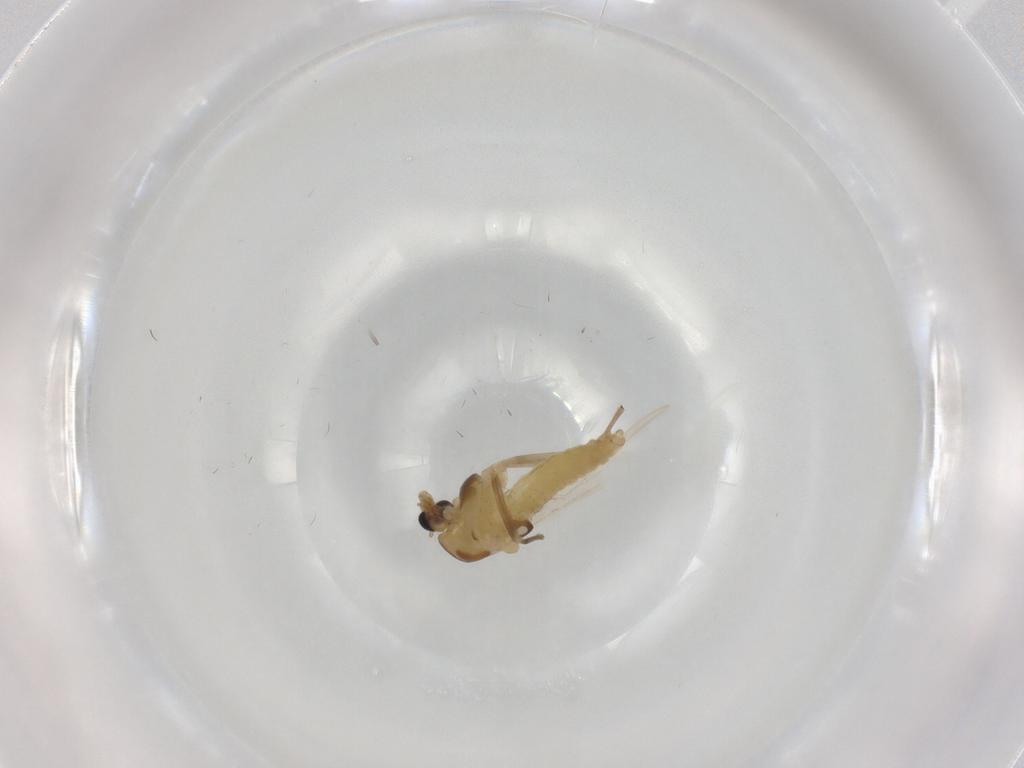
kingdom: Animalia
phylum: Arthropoda
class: Insecta
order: Diptera
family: Chironomidae
